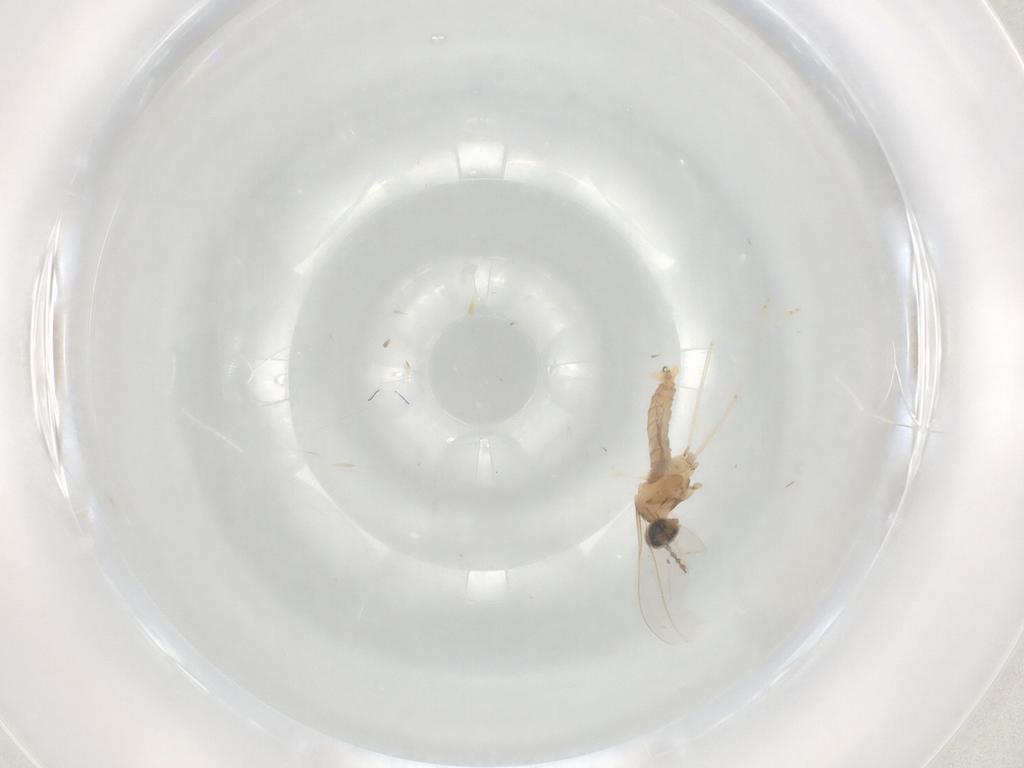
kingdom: Animalia
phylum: Arthropoda
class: Insecta
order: Diptera
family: Cecidomyiidae
